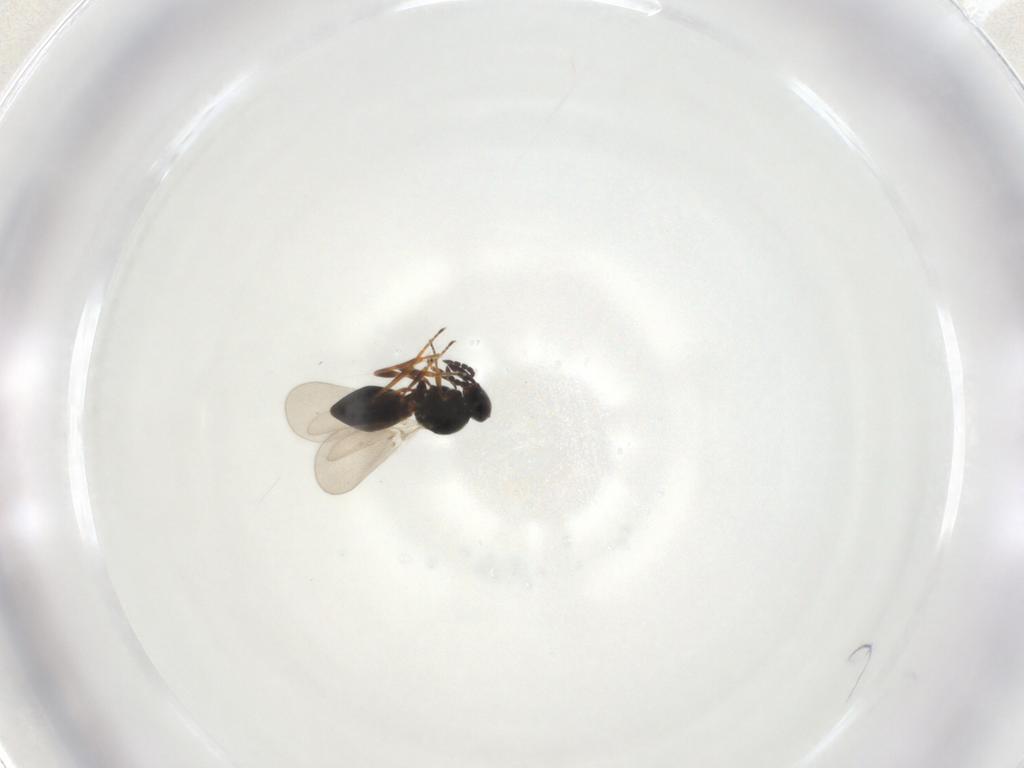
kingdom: Animalia
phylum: Arthropoda
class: Insecta
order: Hymenoptera
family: Platygastridae
